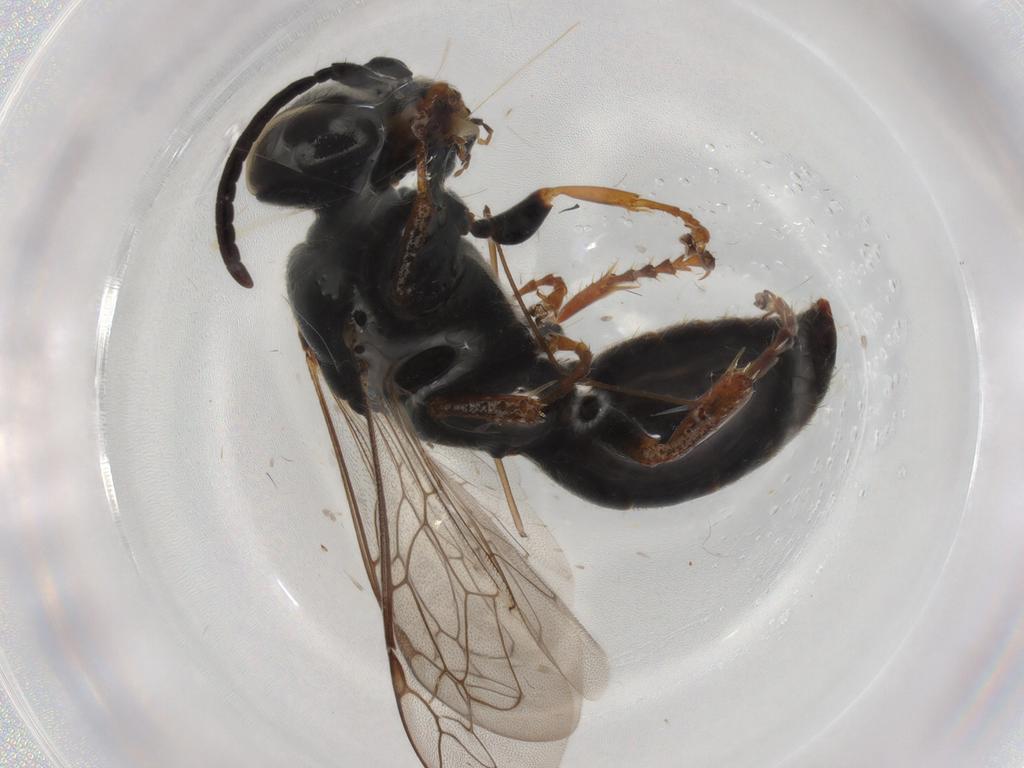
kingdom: Animalia
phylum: Arthropoda
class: Insecta
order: Hymenoptera
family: Crabronidae
